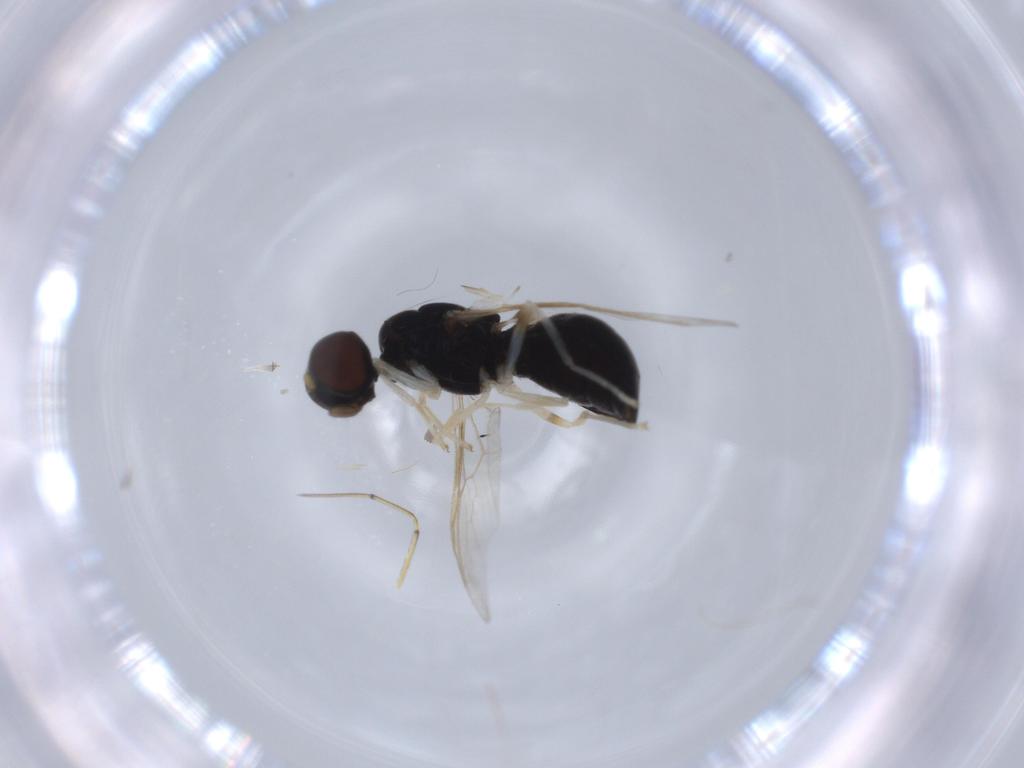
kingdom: Animalia
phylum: Arthropoda
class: Insecta
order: Diptera
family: Stratiomyidae
